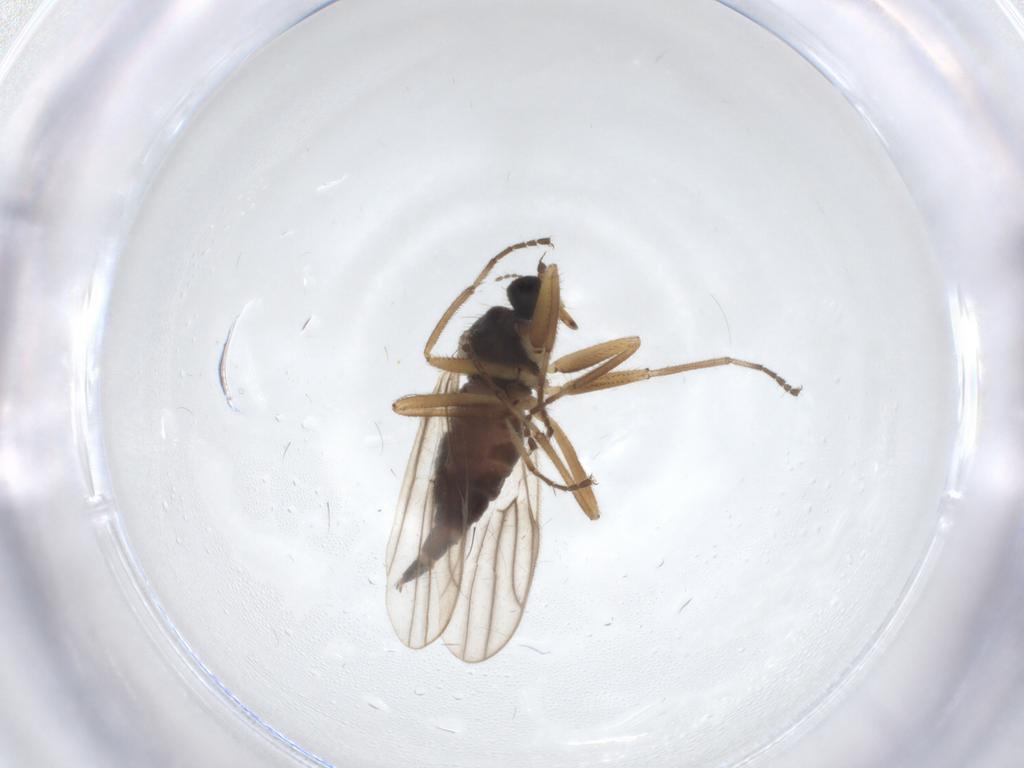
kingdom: Animalia
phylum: Arthropoda
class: Insecta
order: Diptera
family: Hybotidae
